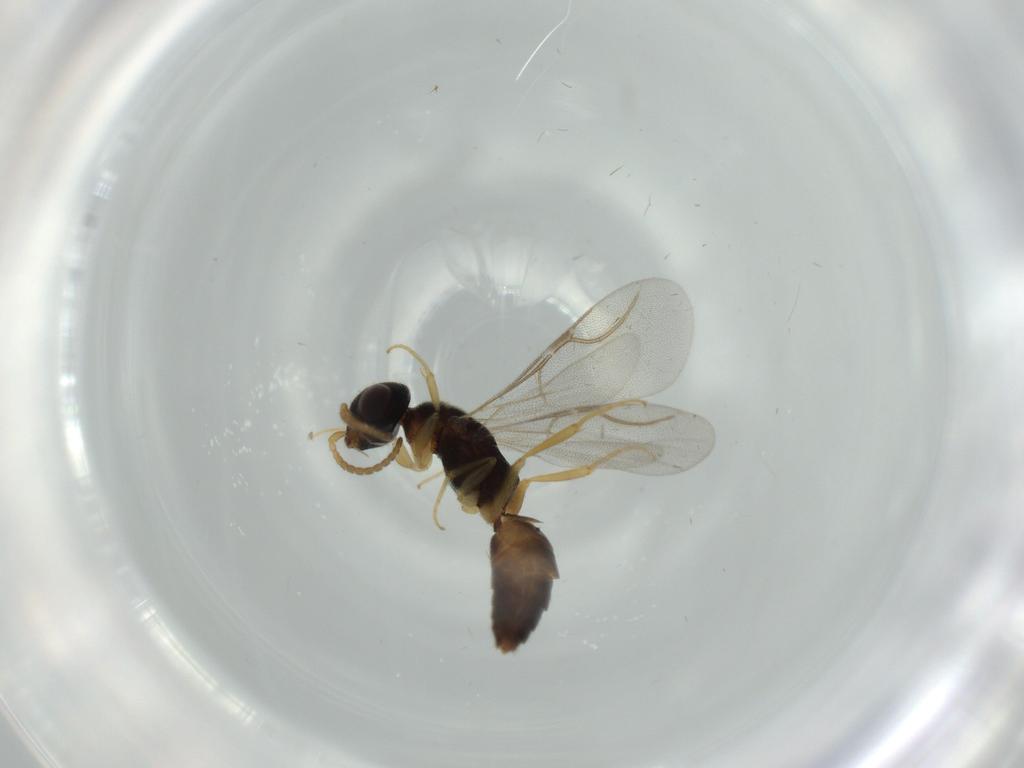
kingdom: Animalia
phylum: Arthropoda
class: Insecta
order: Hymenoptera
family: Bethylidae
